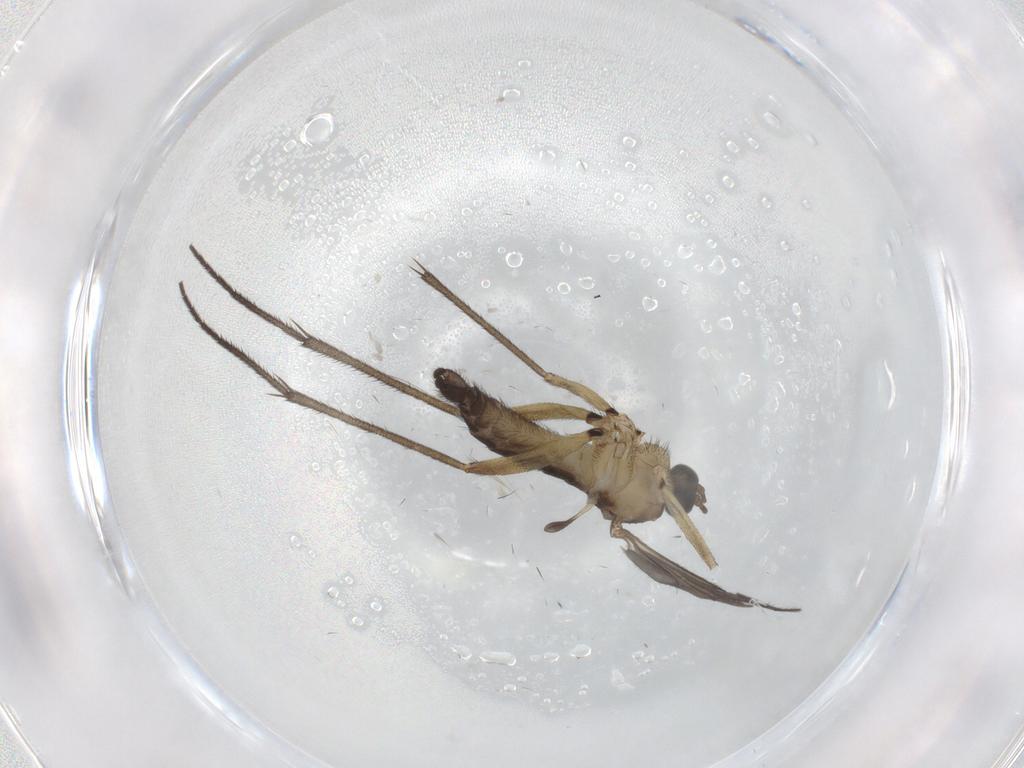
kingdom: Animalia
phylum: Arthropoda
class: Insecta
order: Diptera
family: Sciaridae
